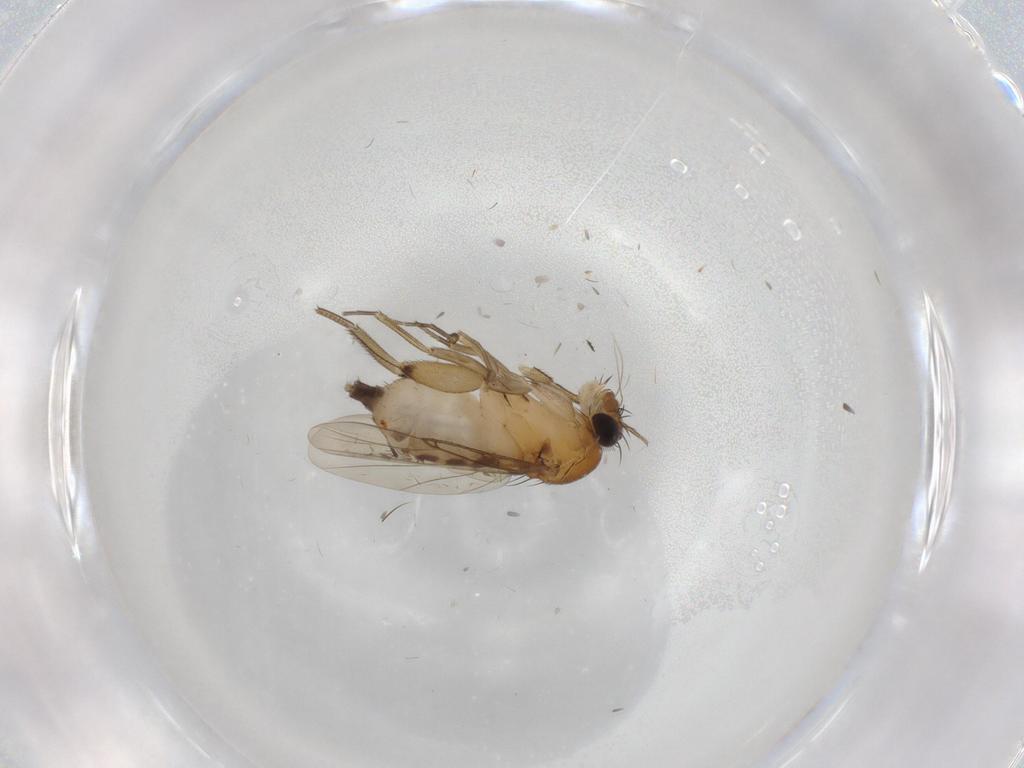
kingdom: Animalia
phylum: Arthropoda
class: Insecta
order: Diptera
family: Phoridae
